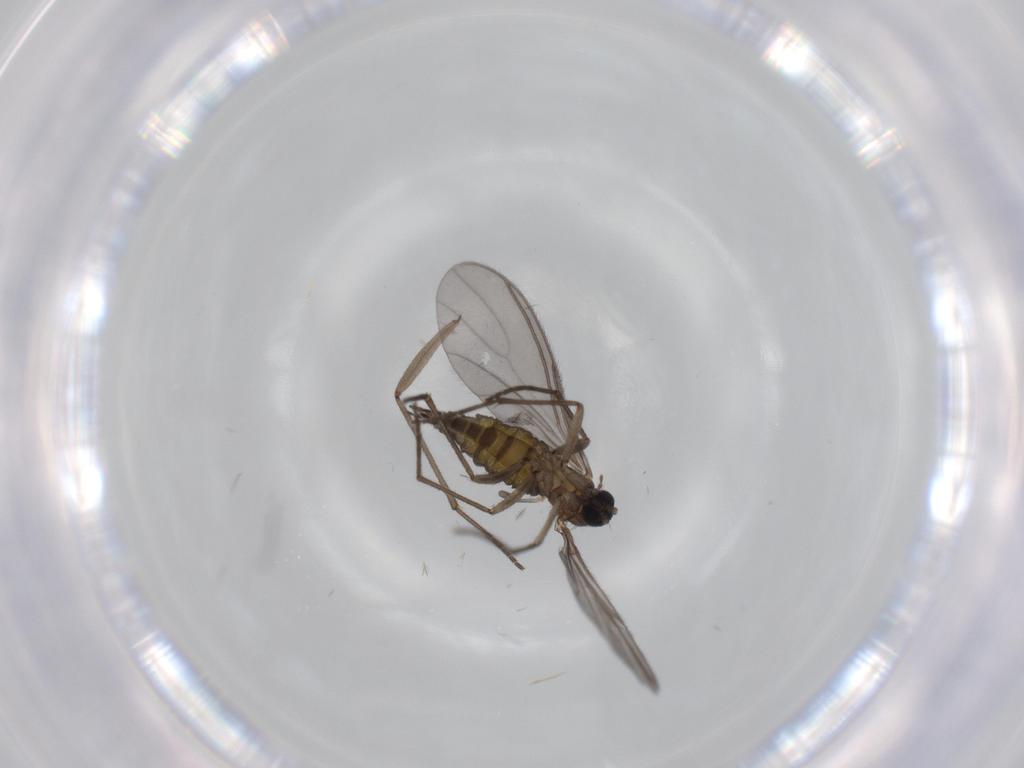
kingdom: Animalia
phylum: Arthropoda
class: Insecta
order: Diptera
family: Sciaridae
